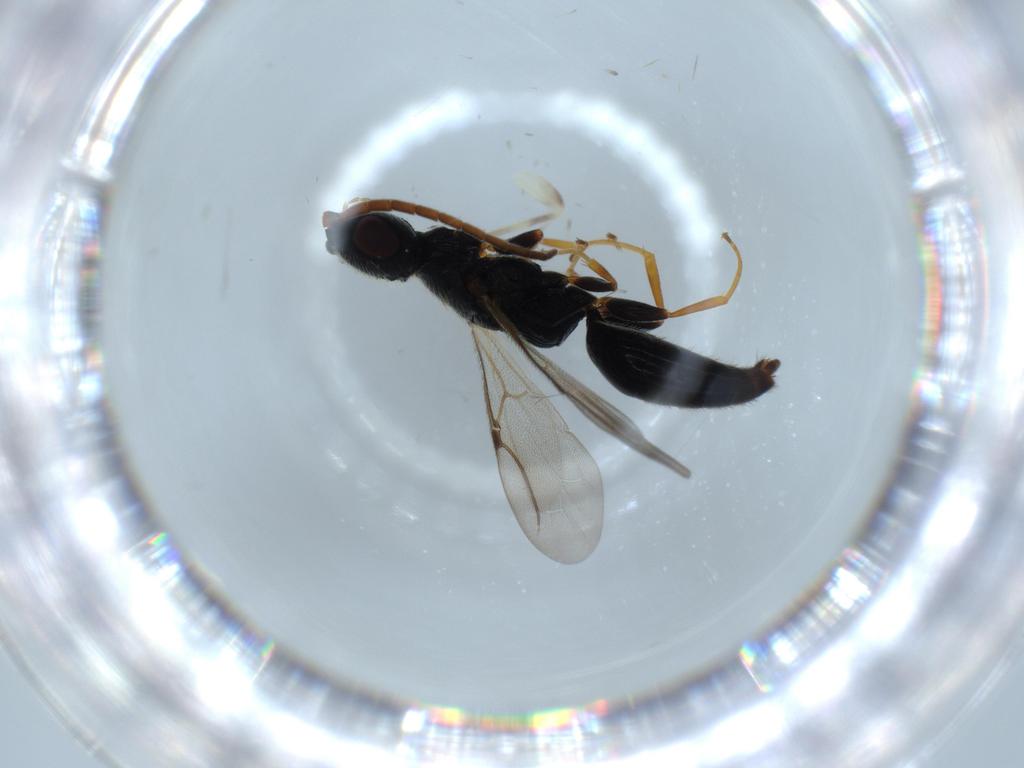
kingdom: Animalia
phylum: Arthropoda
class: Insecta
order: Hymenoptera
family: Bethylidae
